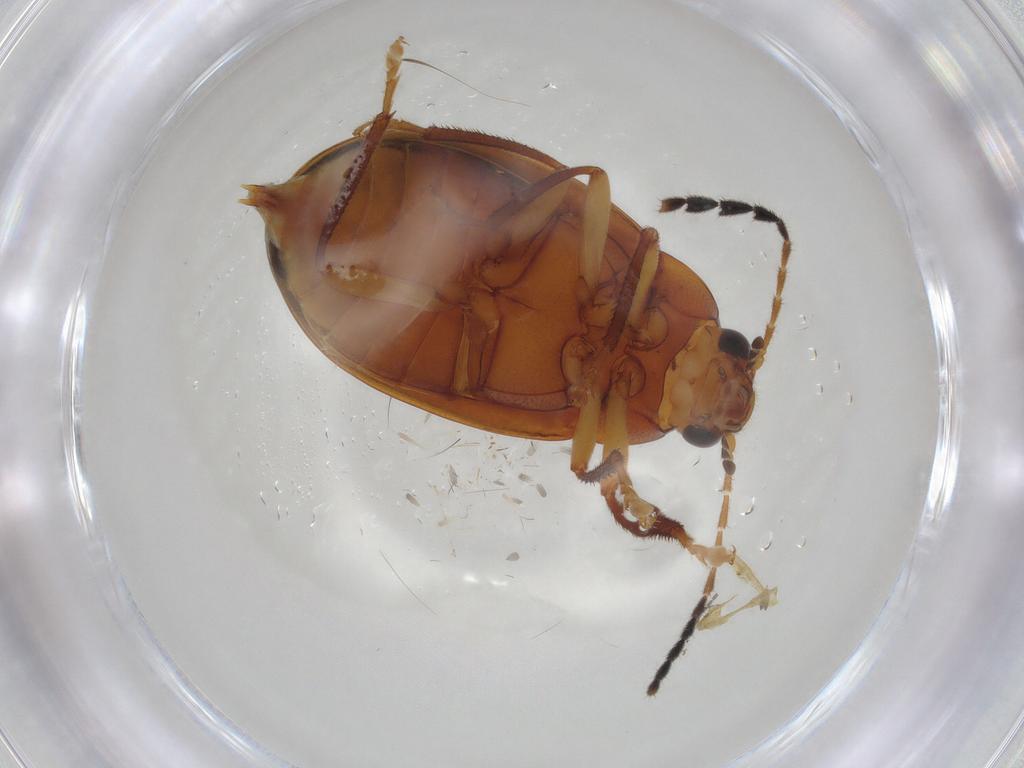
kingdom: Animalia
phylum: Arthropoda
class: Insecta
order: Coleoptera
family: Ptilodactylidae
